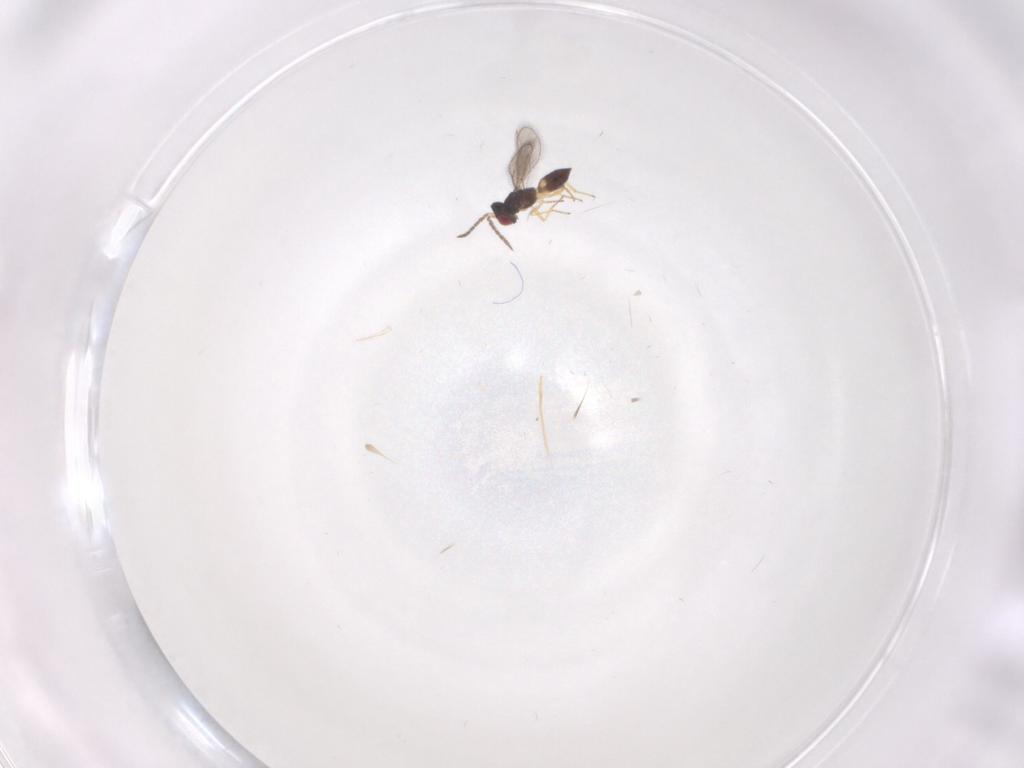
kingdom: Animalia
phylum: Arthropoda
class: Insecta
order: Hymenoptera
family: Eulophidae
